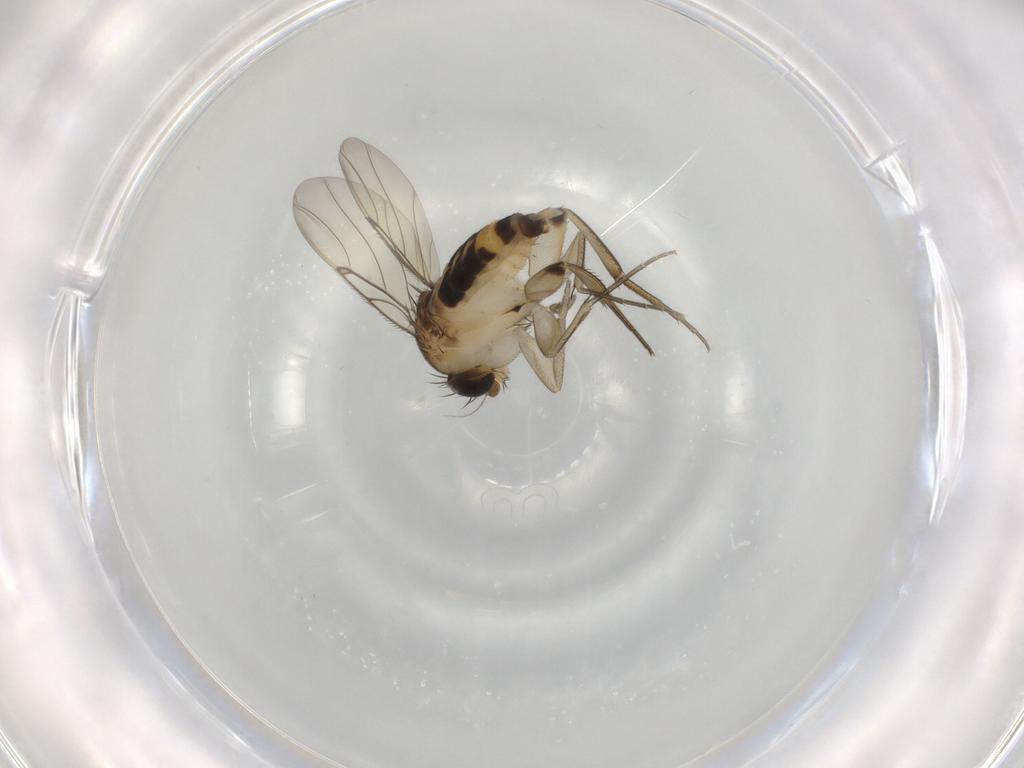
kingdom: Animalia
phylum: Arthropoda
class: Insecta
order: Diptera
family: Phoridae
